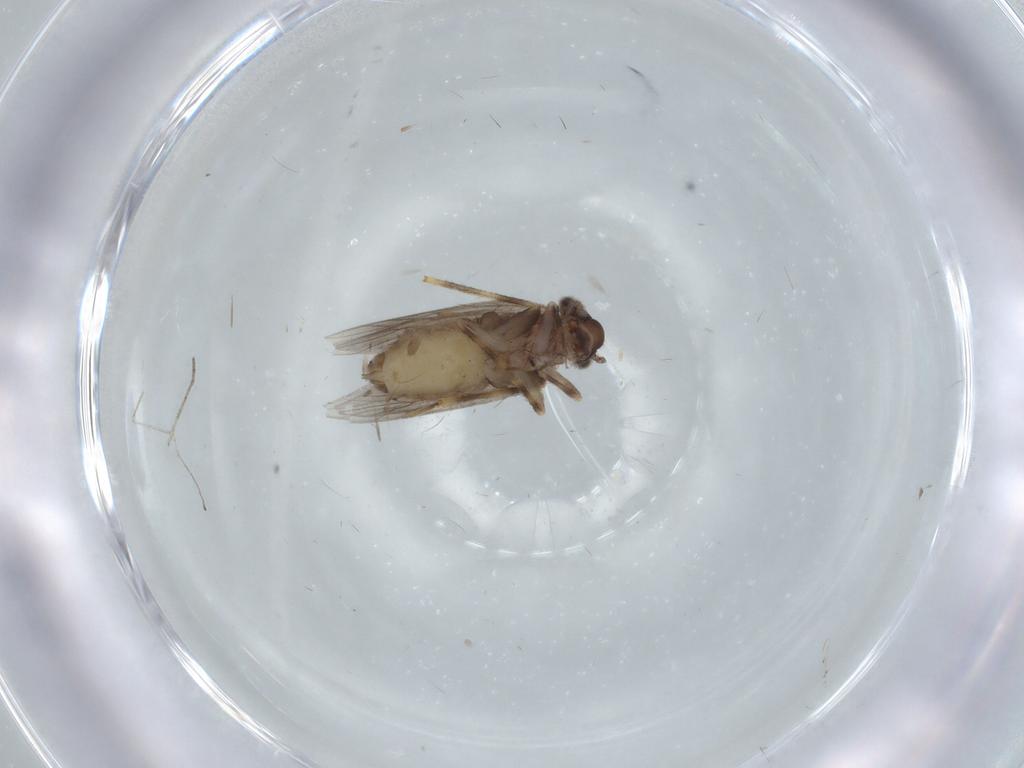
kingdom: Animalia
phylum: Arthropoda
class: Insecta
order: Psocodea
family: Lepidopsocidae
